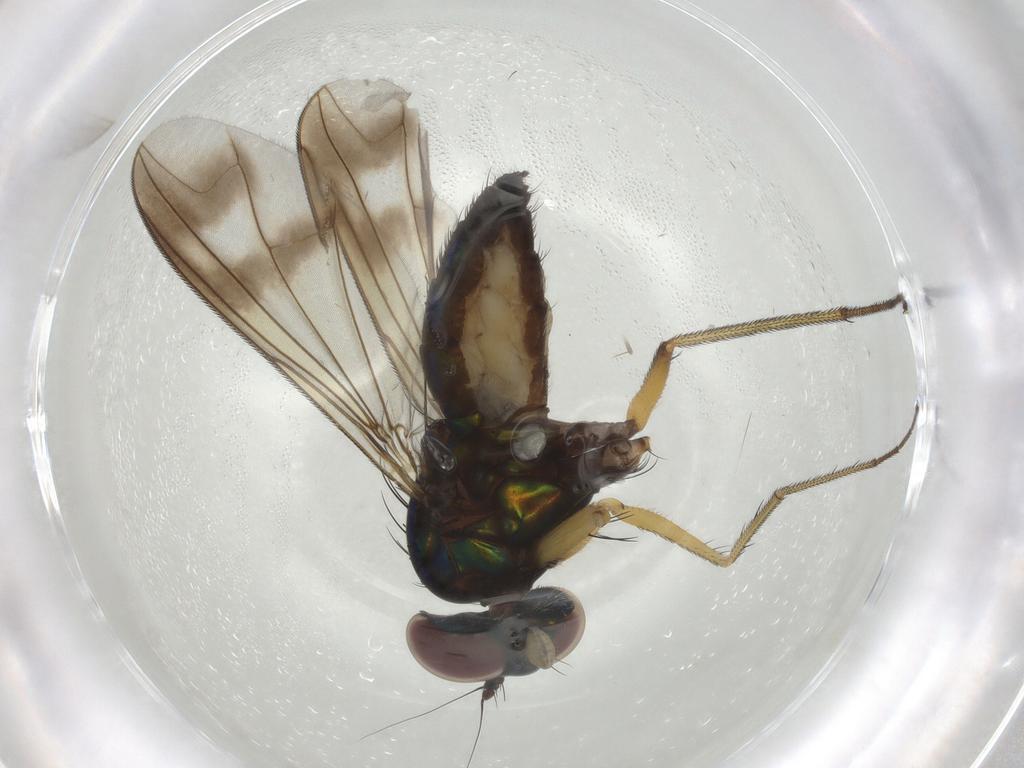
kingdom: Animalia
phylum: Arthropoda
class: Insecta
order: Diptera
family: Dolichopodidae
